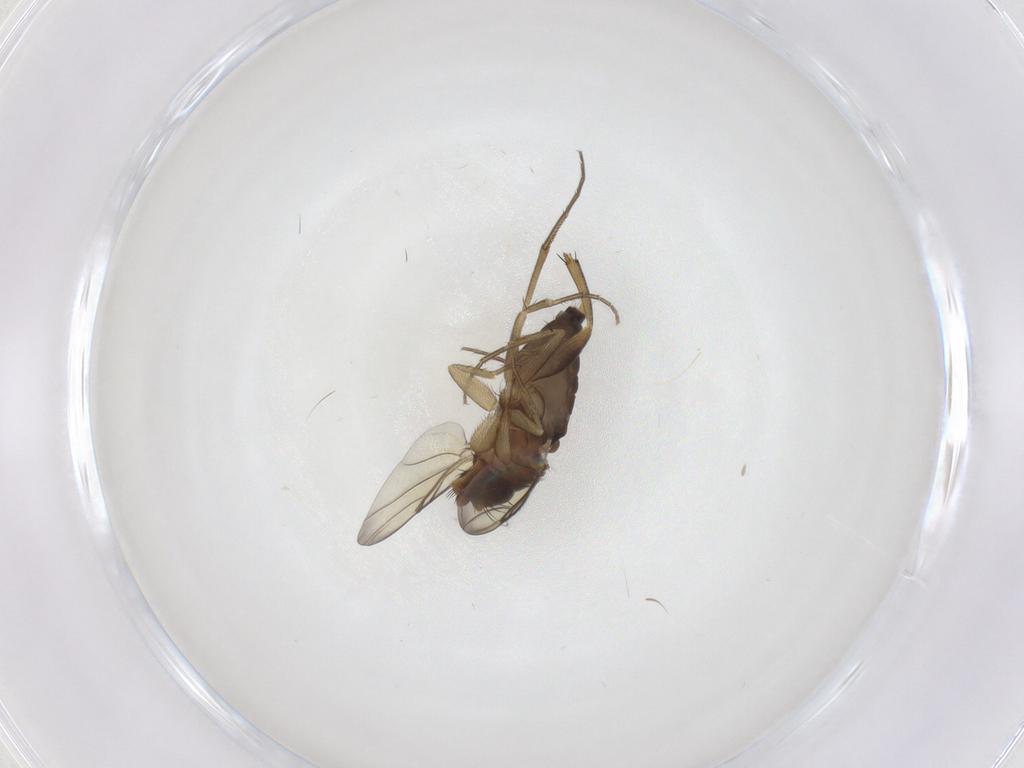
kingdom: Animalia
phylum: Arthropoda
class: Insecta
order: Diptera
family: Phoridae
